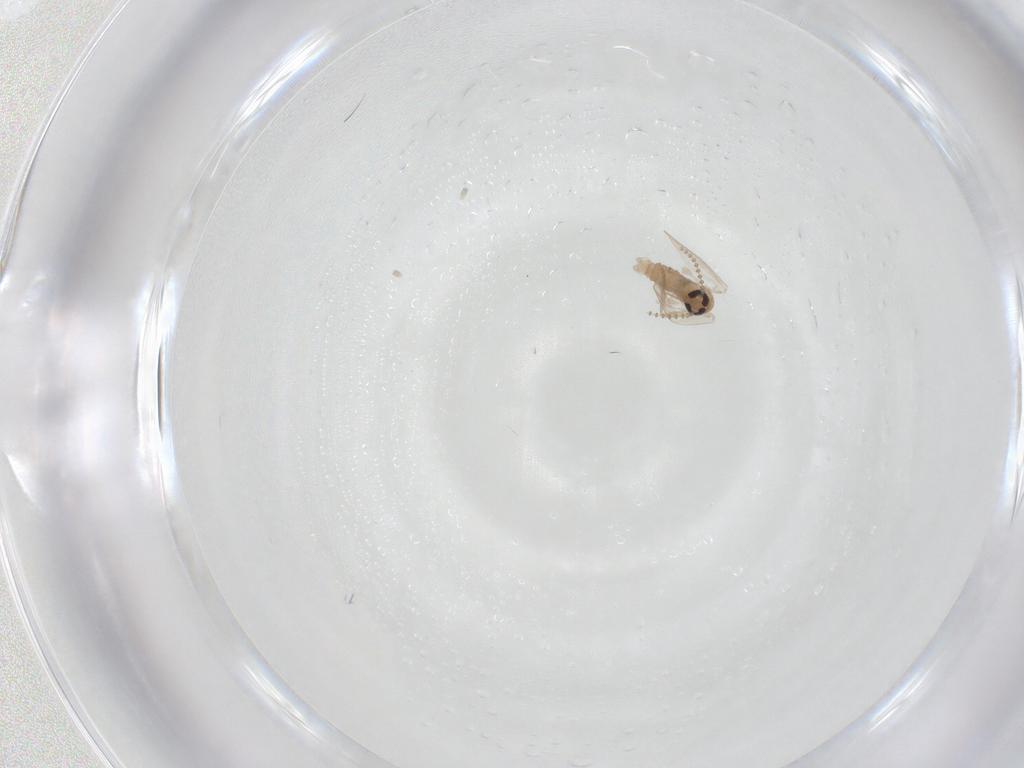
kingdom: Animalia
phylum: Arthropoda
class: Insecta
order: Diptera
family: Psychodidae
